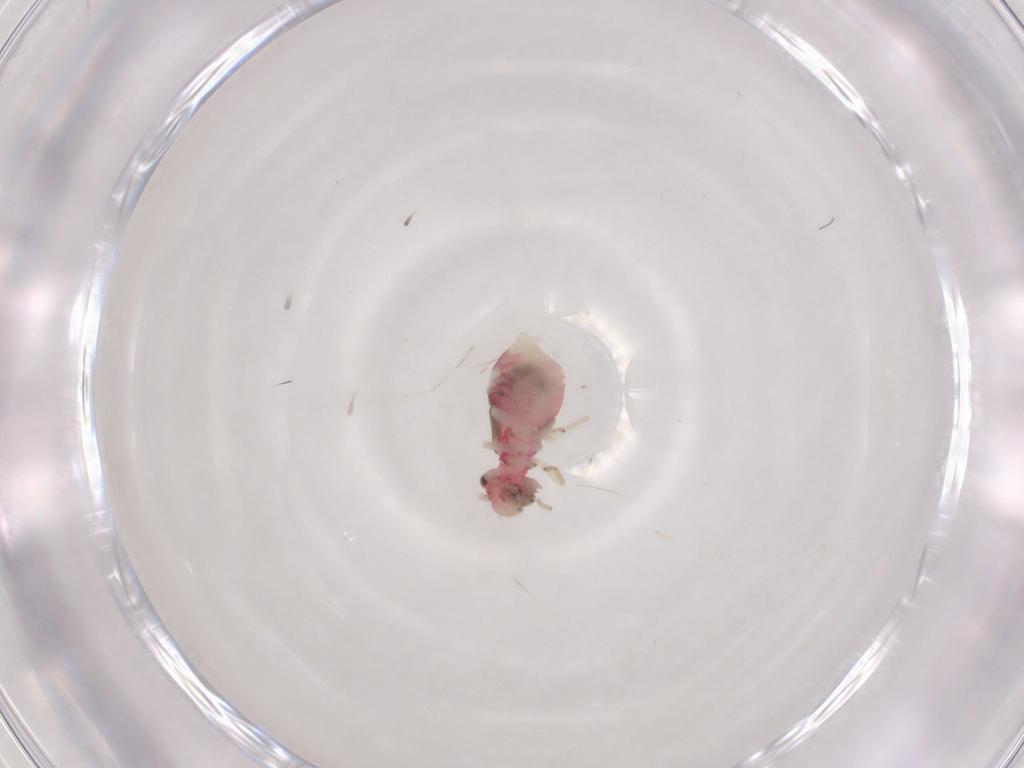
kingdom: Animalia
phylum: Arthropoda
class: Insecta
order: Psocodea
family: Caeciliusidae
